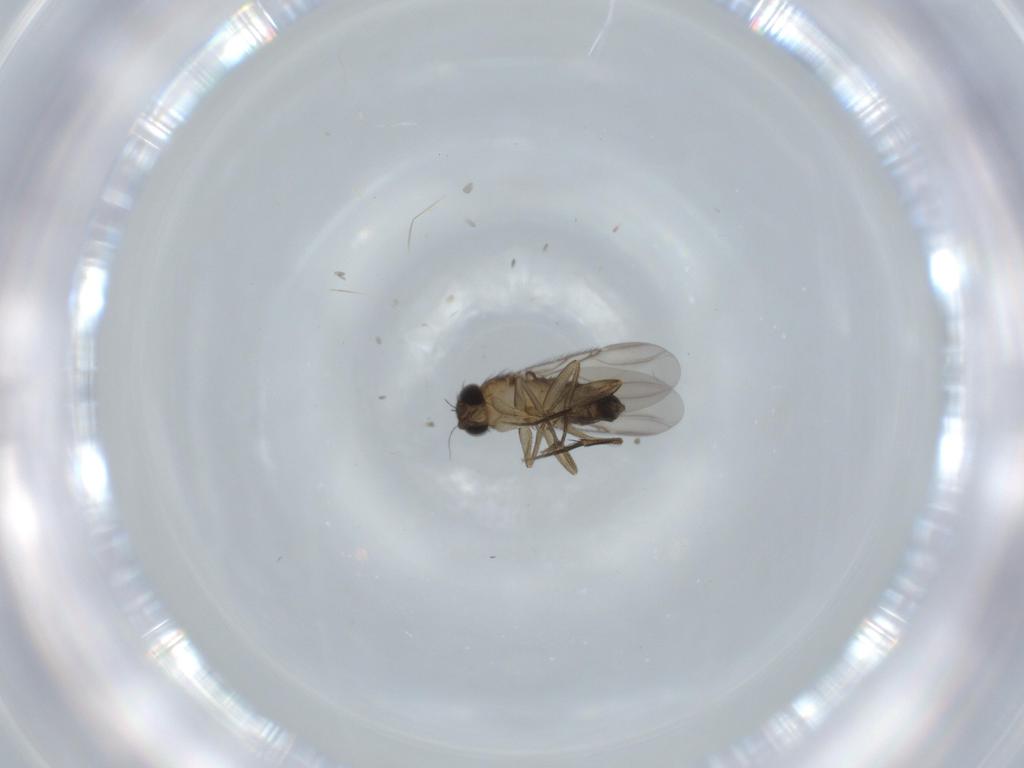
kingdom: Animalia
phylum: Arthropoda
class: Insecta
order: Diptera
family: Phoridae
